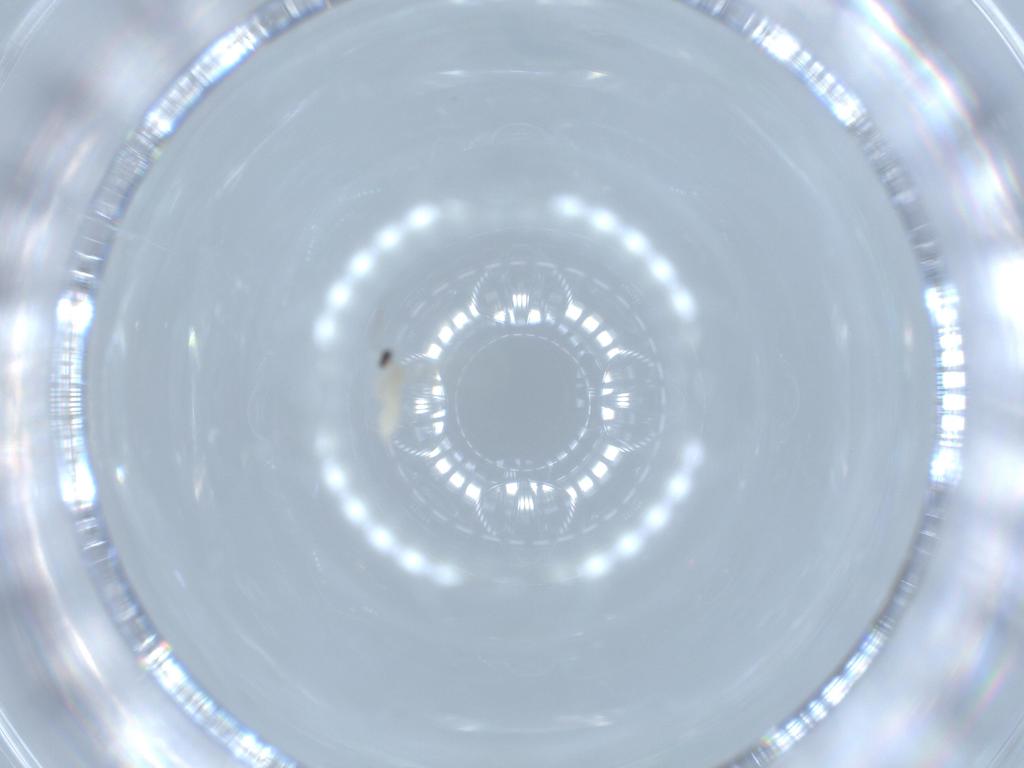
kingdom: Animalia
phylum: Arthropoda
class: Insecta
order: Diptera
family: Cecidomyiidae
